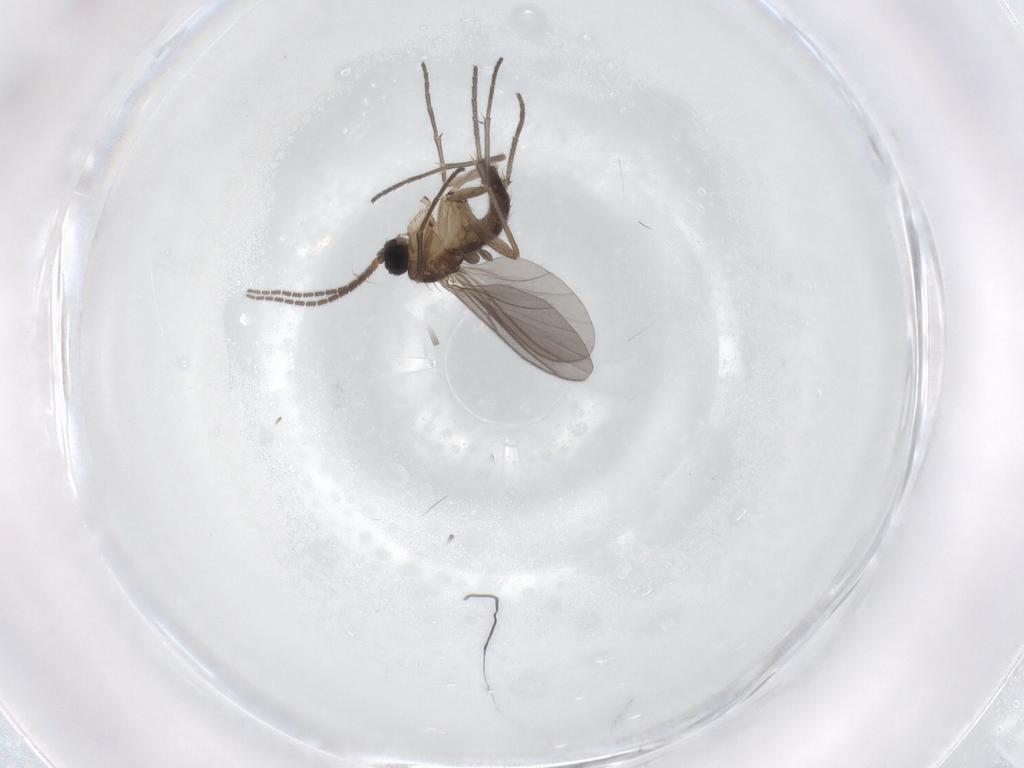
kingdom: Animalia
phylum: Arthropoda
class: Insecta
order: Diptera
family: Sciaridae
